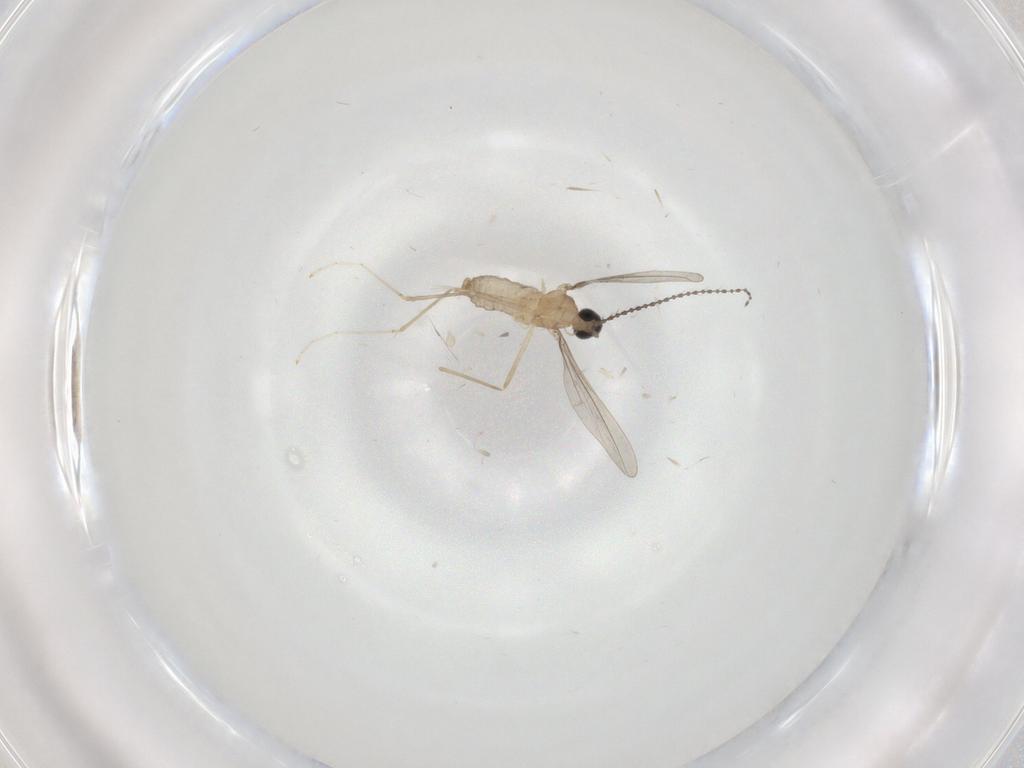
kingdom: Animalia
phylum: Arthropoda
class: Insecta
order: Diptera
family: Cecidomyiidae
